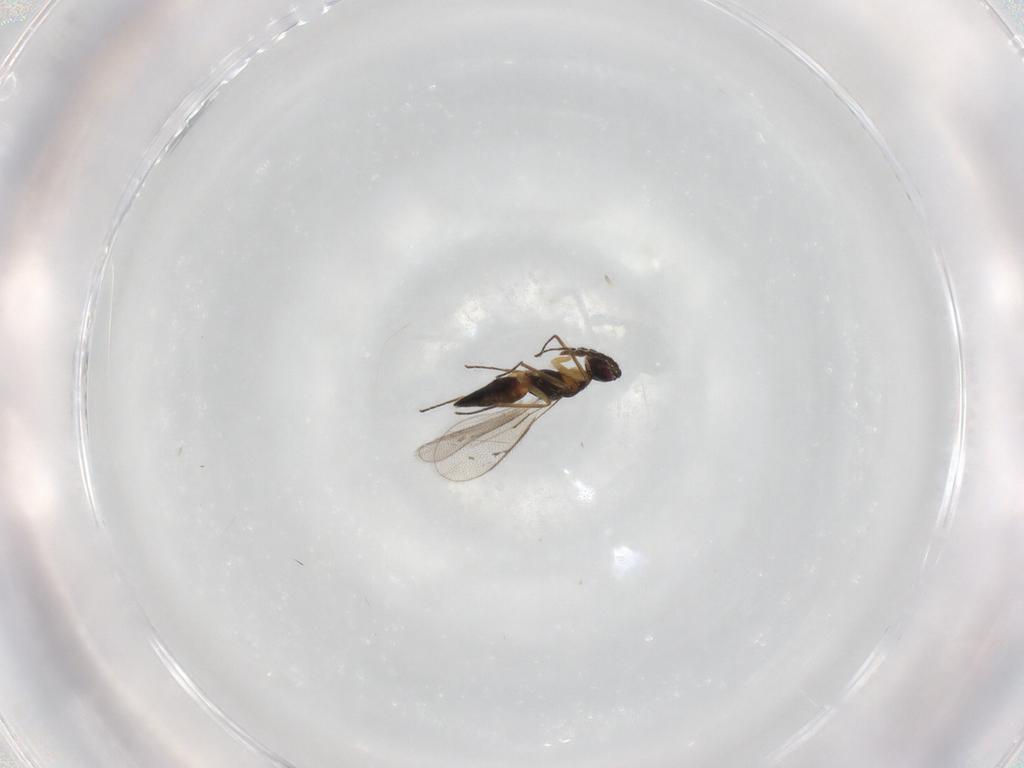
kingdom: Animalia
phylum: Arthropoda
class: Insecta
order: Hymenoptera
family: Eulophidae
